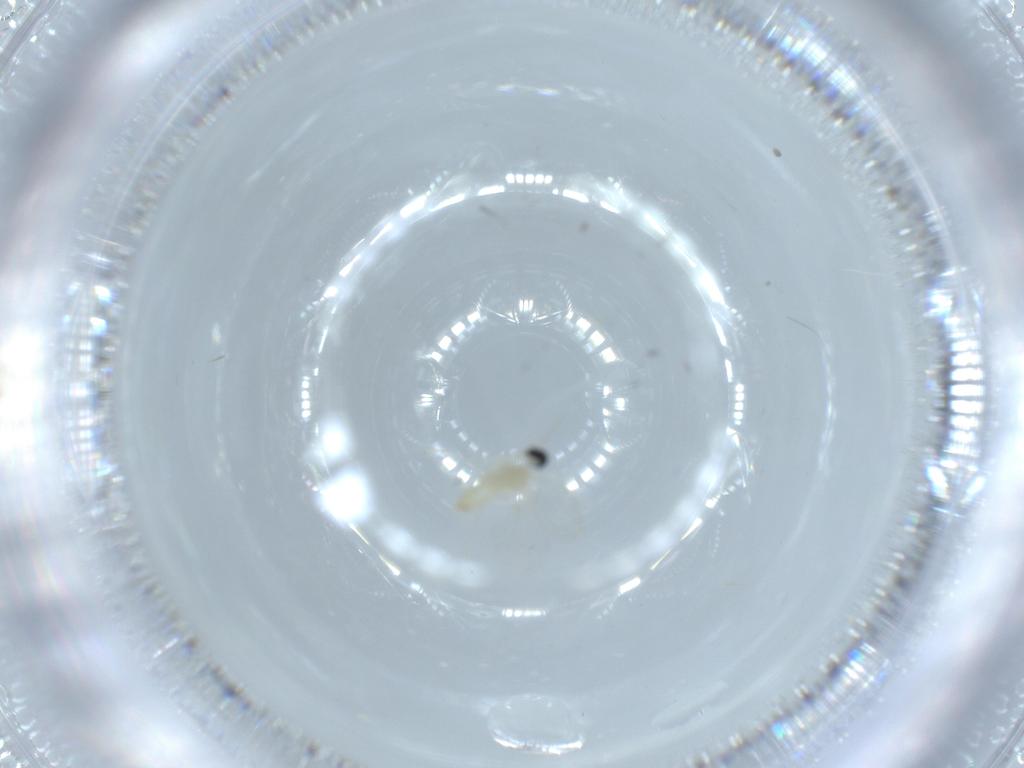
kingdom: Animalia
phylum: Arthropoda
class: Insecta
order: Diptera
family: Cecidomyiidae
